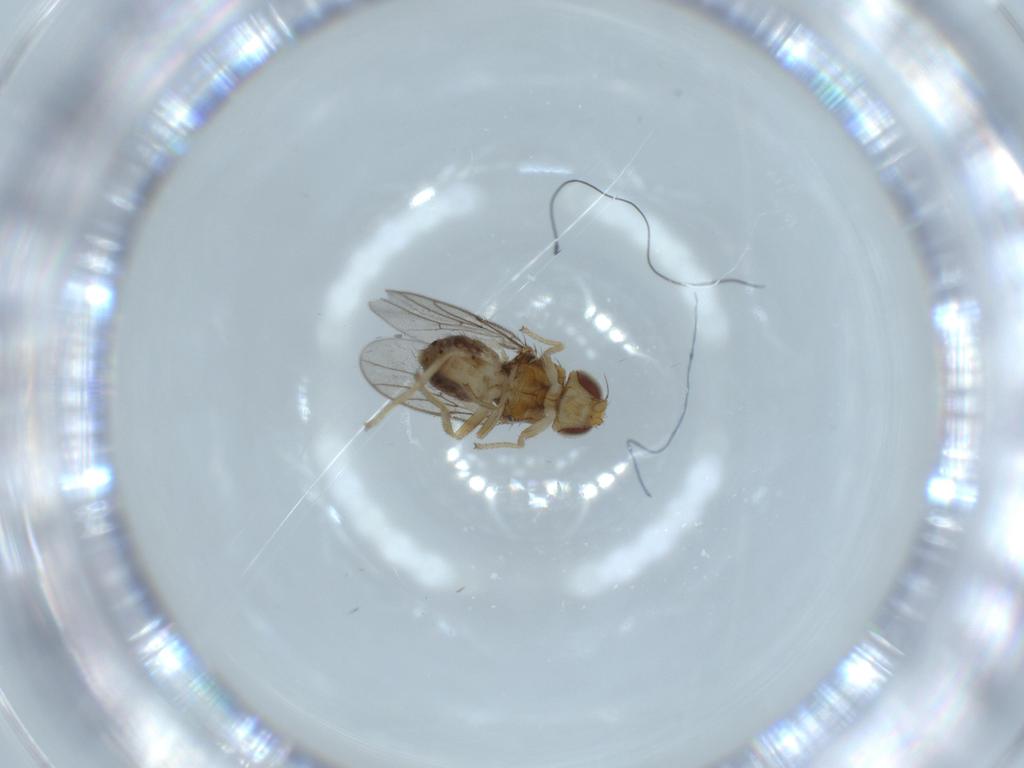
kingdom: Animalia
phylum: Arthropoda
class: Insecta
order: Diptera
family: Chloropidae
